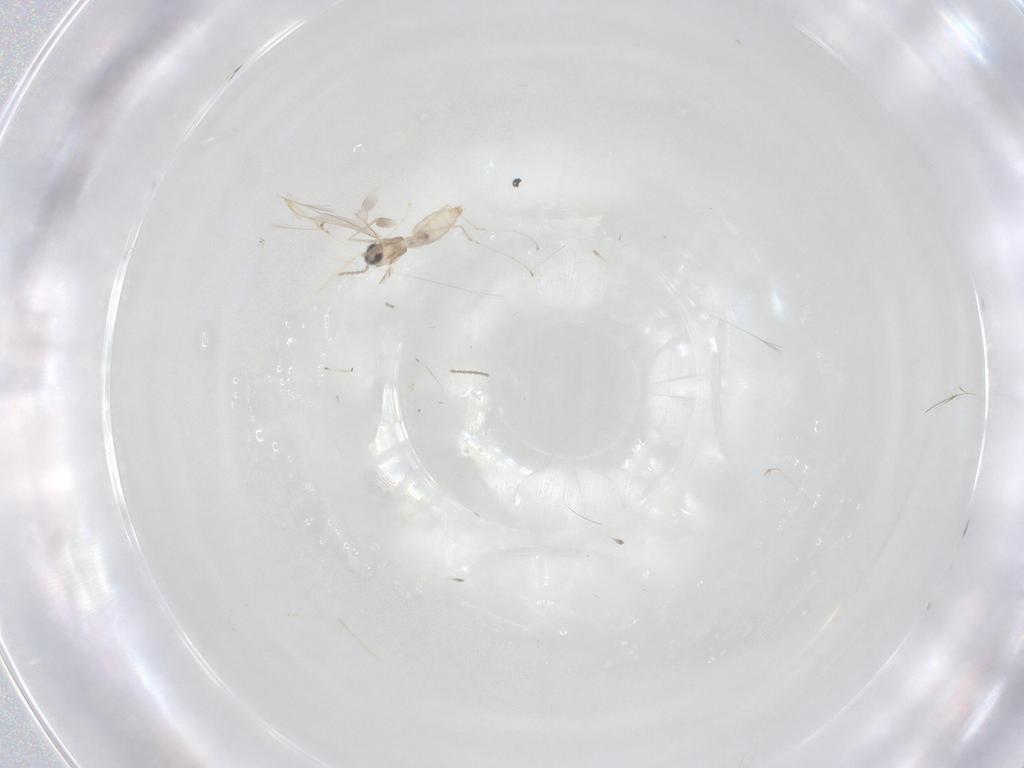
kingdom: Animalia
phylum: Arthropoda
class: Insecta
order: Diptera
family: Cecidomyiidae
